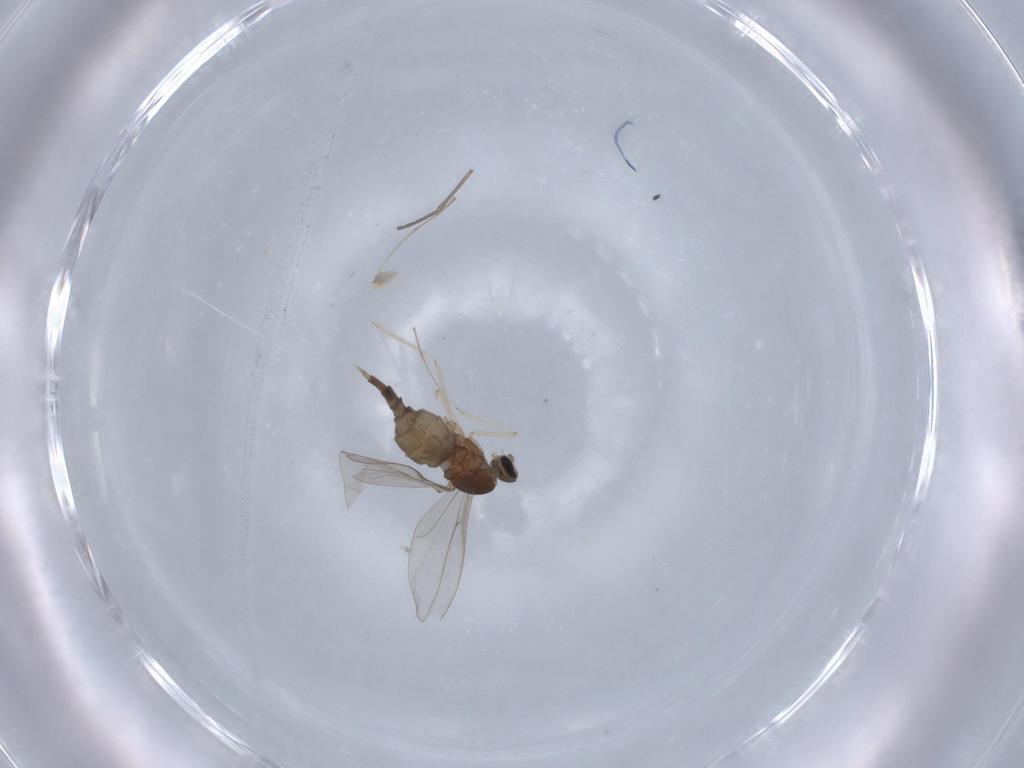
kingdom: Animalia
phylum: Arthropoda
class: Insecta
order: Diptera
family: Cecidomyiidae
